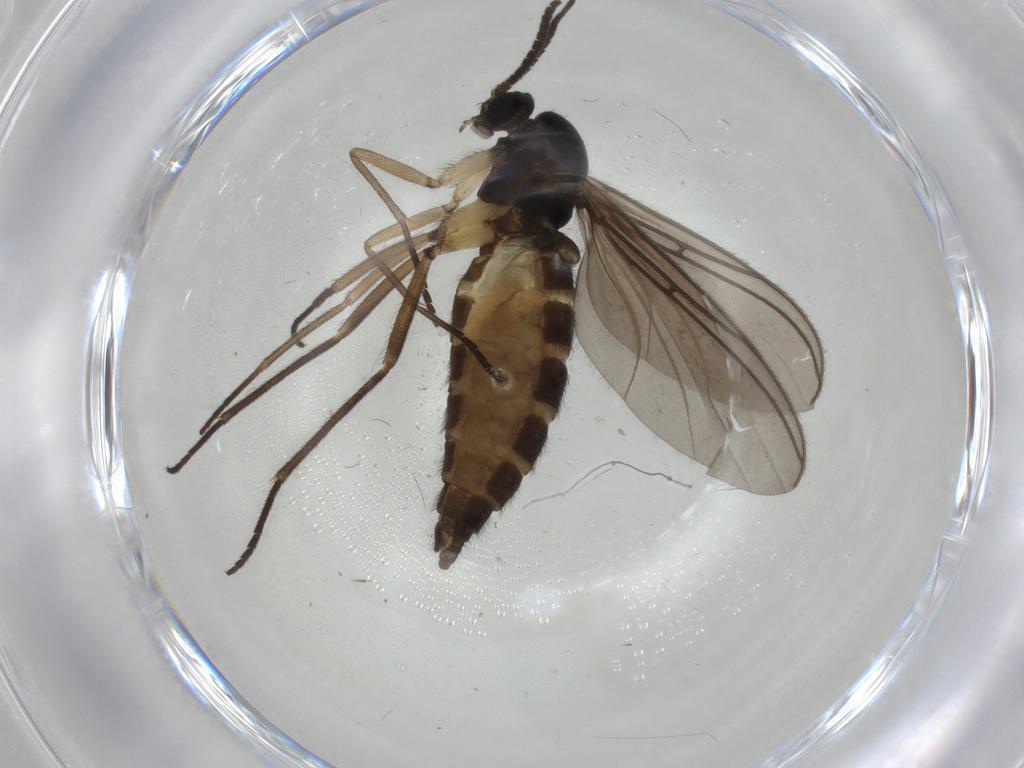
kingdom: Animalia
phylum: Arthropoda
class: Insecta
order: Diptera
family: Sciaridae
